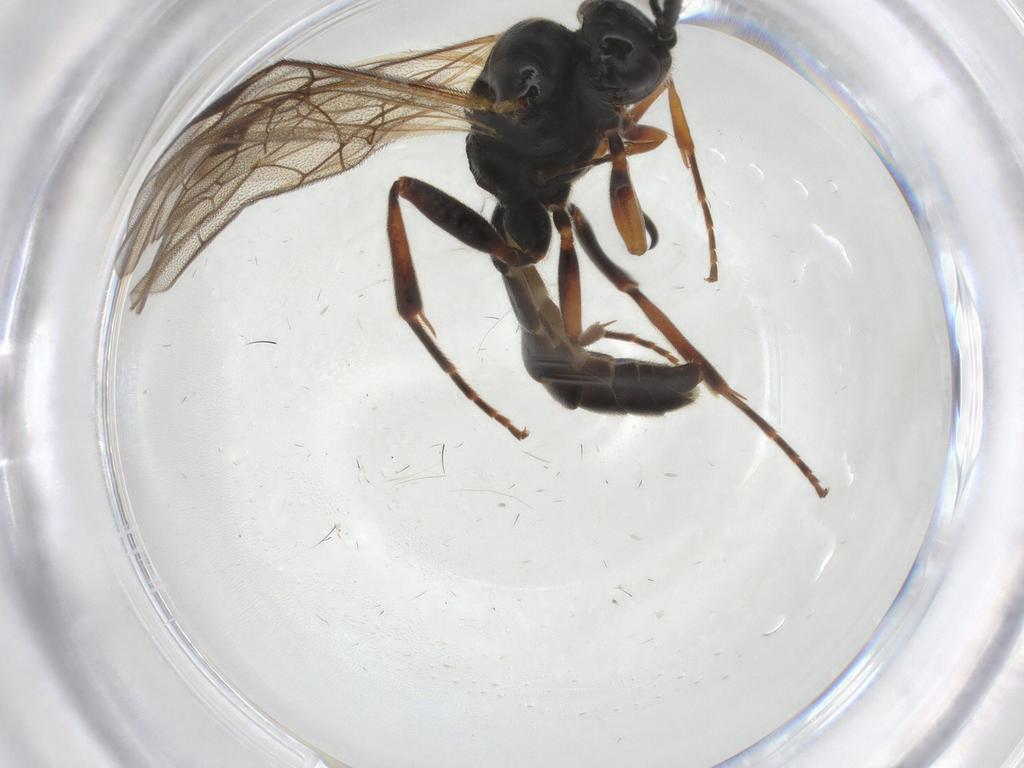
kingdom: Animalia
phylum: Arthropoda
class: Insecta
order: Hymenoptera
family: Ichneumonidae
